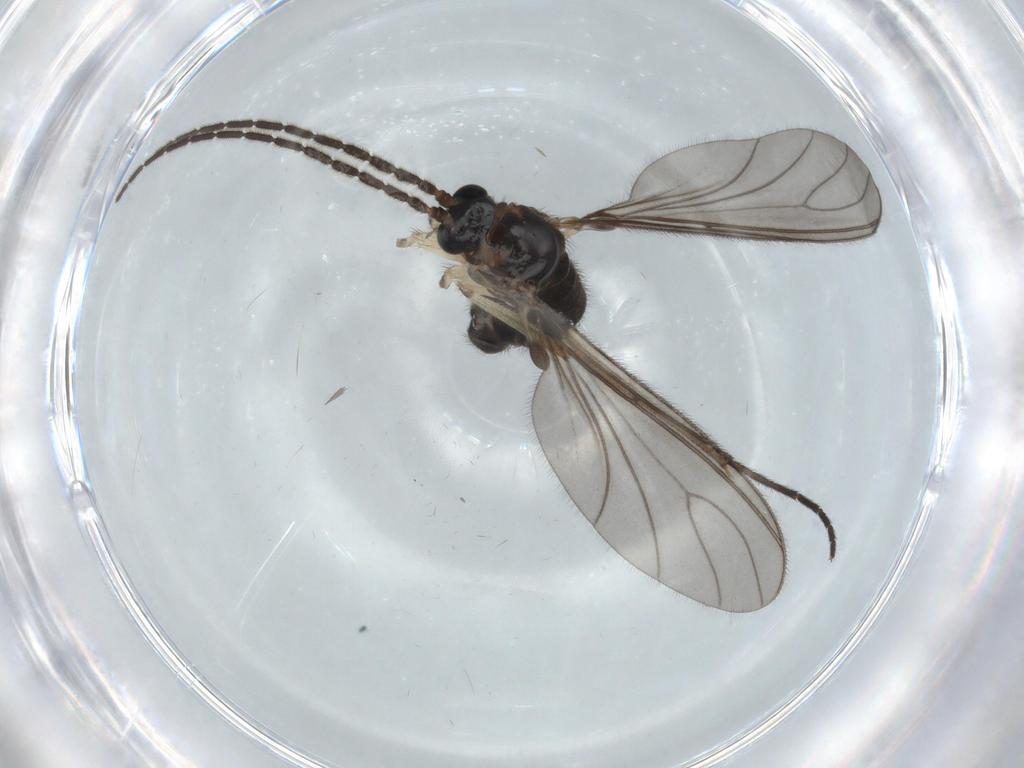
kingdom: Animalia
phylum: Arthropoda
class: Insecta
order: Diptera
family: Sciaridae
